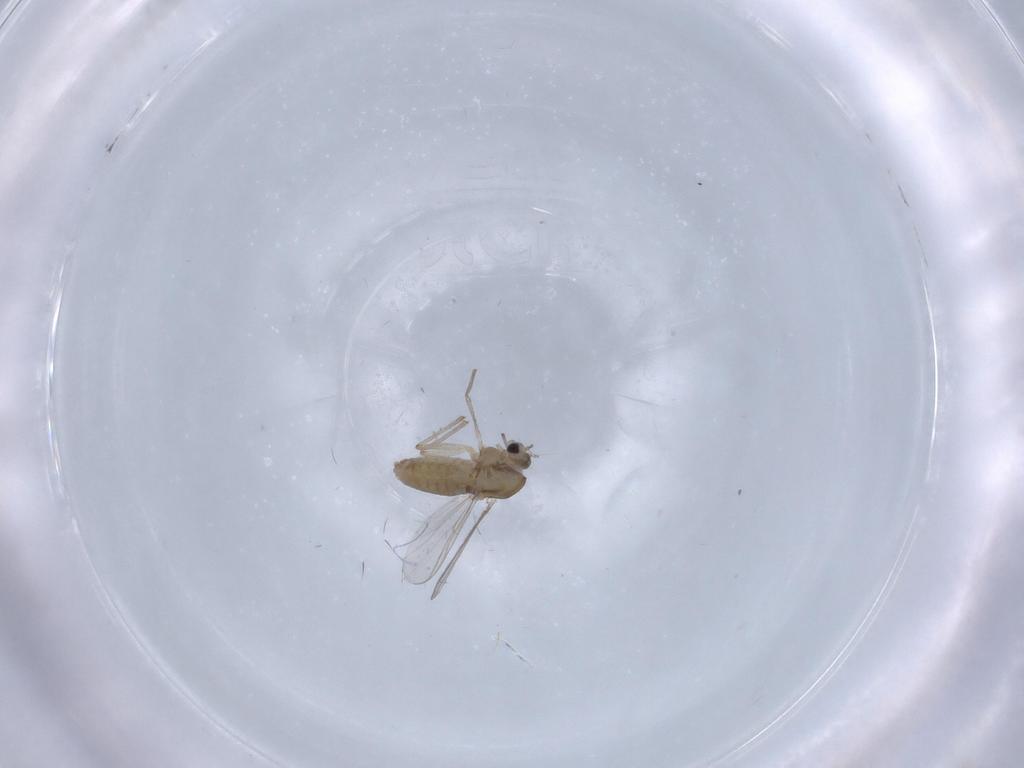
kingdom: Animalia
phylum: Arthropoda
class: Insecta
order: Diptera
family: Chironomidae
